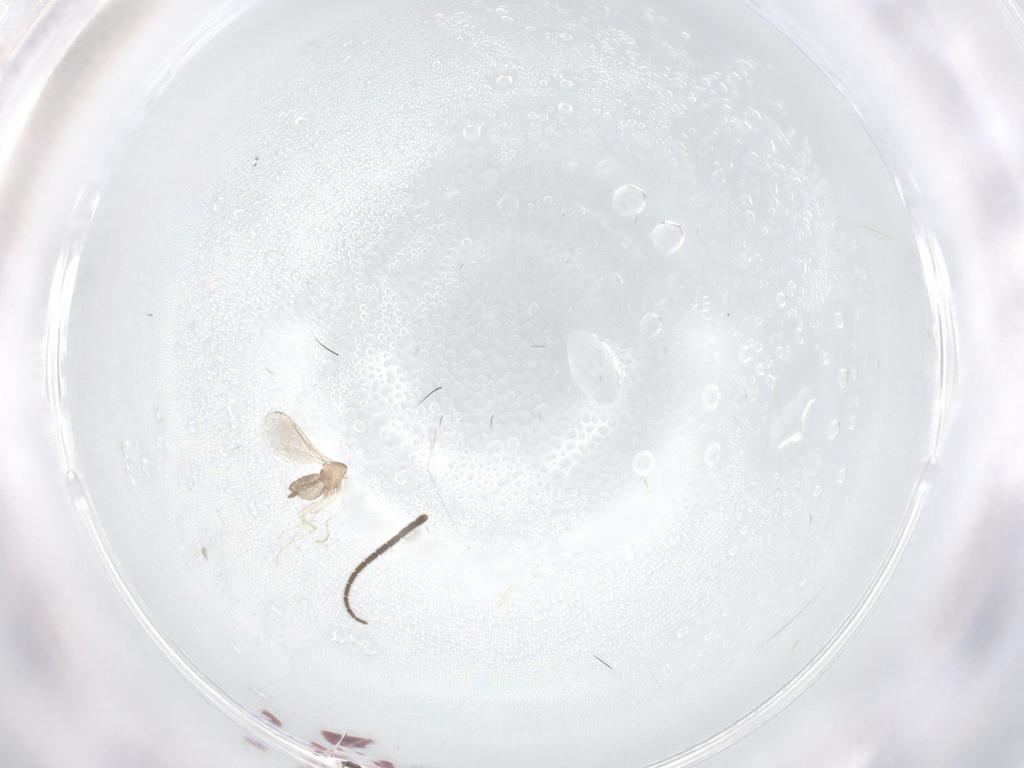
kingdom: Animalia
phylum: Arthropoda
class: Insecta
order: Diptera
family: Sciaridae
